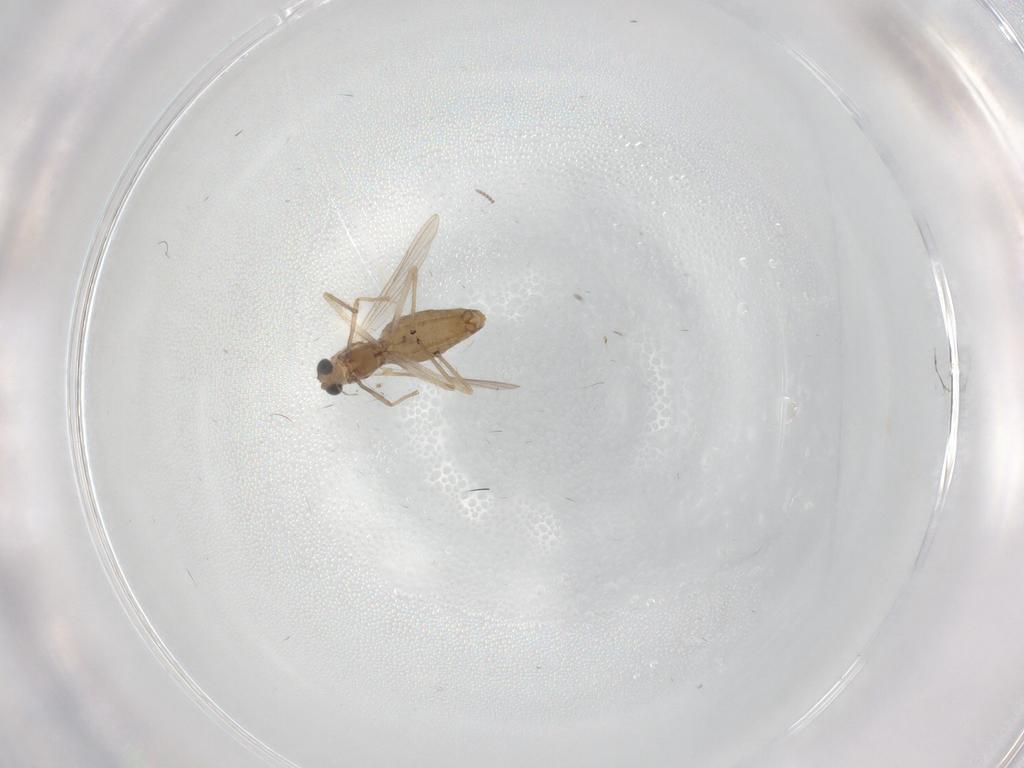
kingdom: Animalia
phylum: Arthropoda
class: Insecta
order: Diptera
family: Chironomidae
